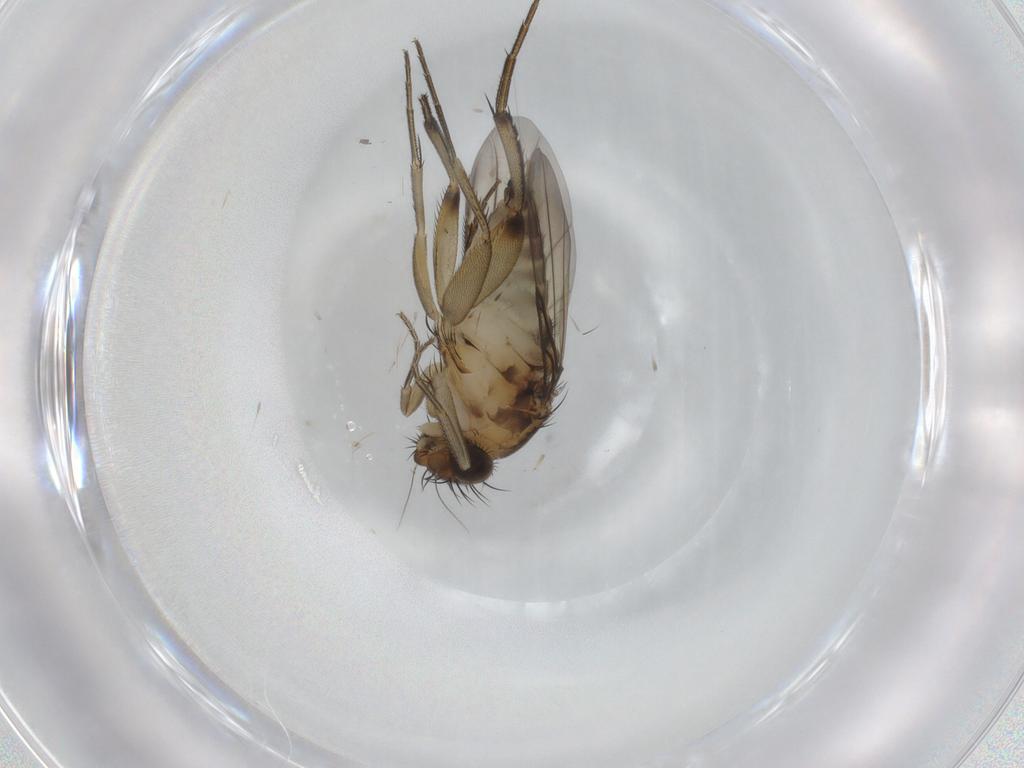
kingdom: Animalia
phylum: Arthropoda
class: Insecta
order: Diptera
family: Phoridae
